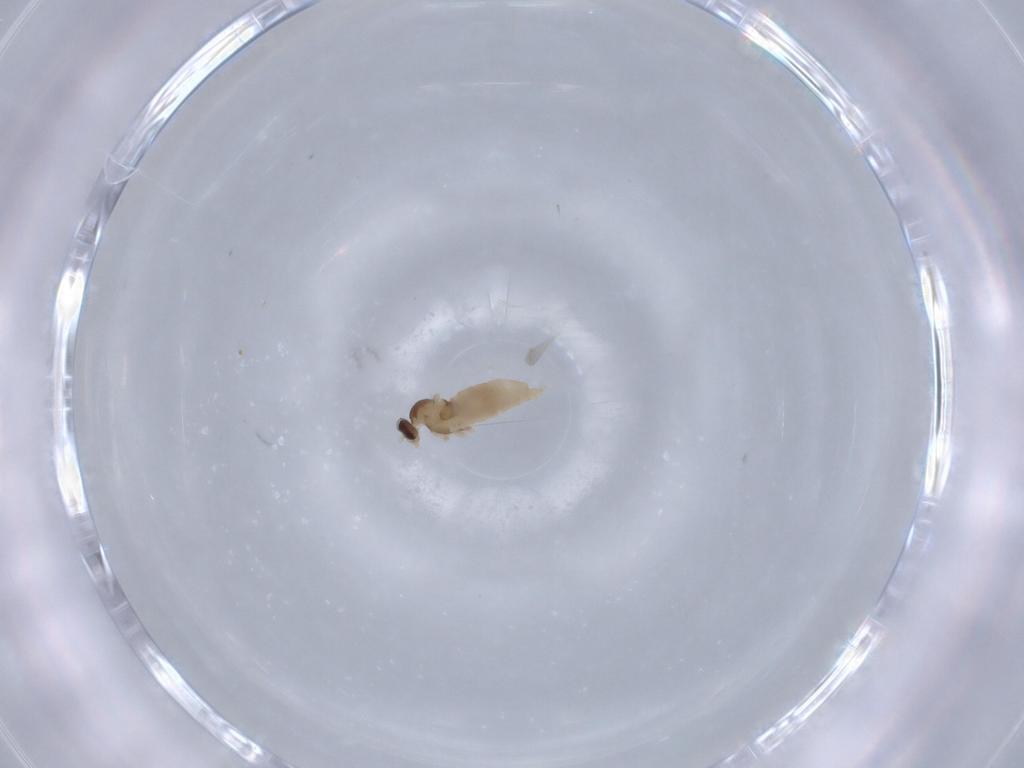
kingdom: Animalia
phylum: Arthropoda
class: Insecta
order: Diptera
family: Cecidomyiidae
